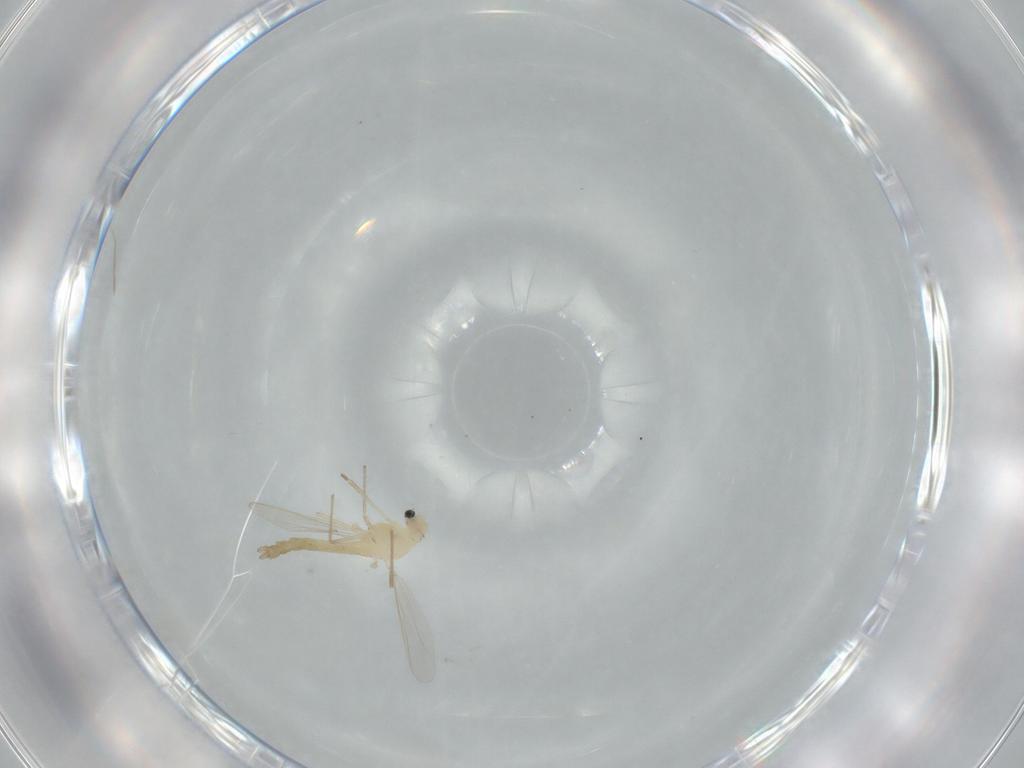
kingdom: Animalia
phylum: Arthropoda
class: Insecta
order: Diptera
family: Chironomidae
